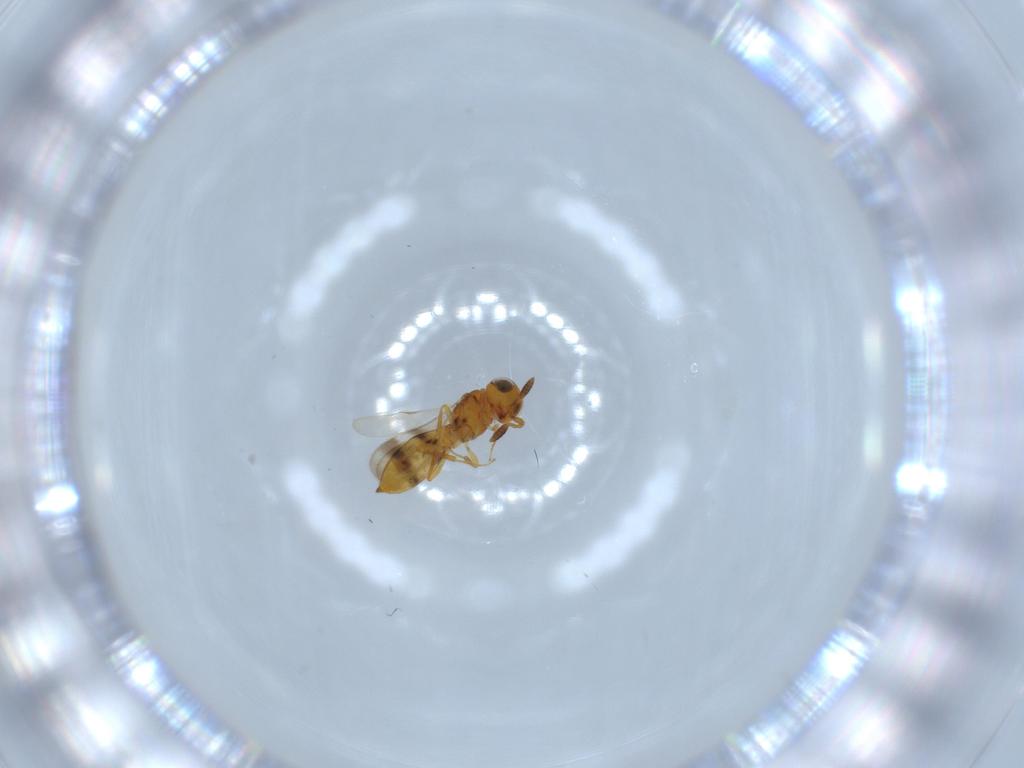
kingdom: Animalia
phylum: Arthropoda
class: Insecta
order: Hymenoptera
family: Scelionidae
